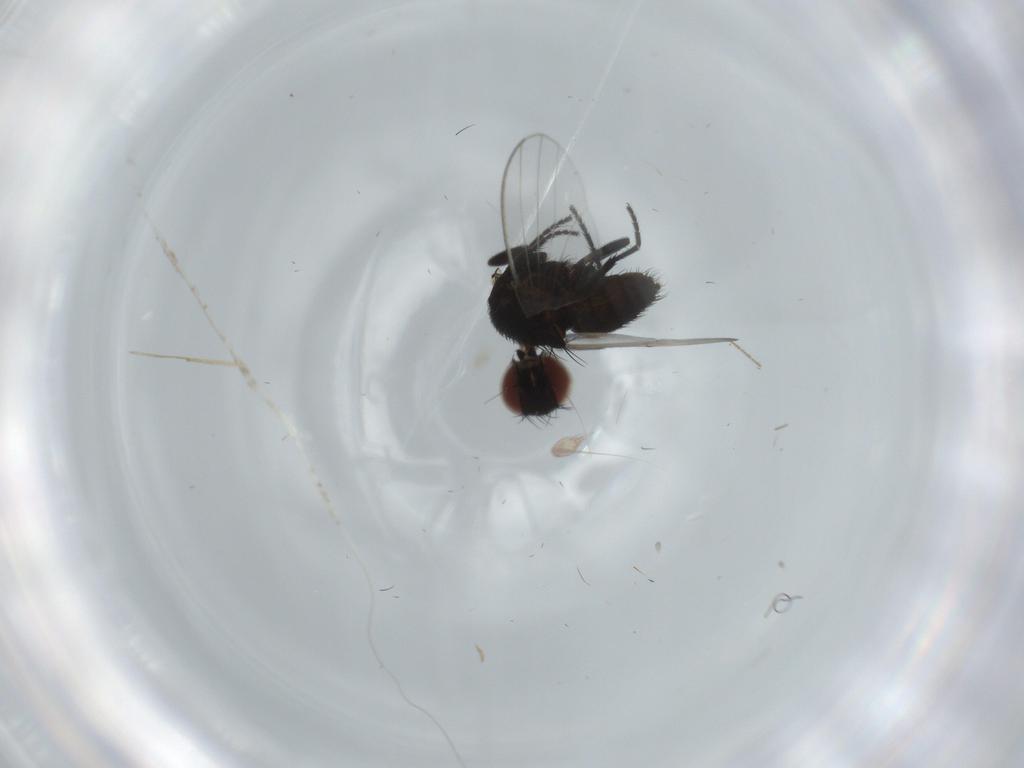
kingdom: Animalia
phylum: Arthropoda
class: Insecta
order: Diptera
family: Milichiidae
